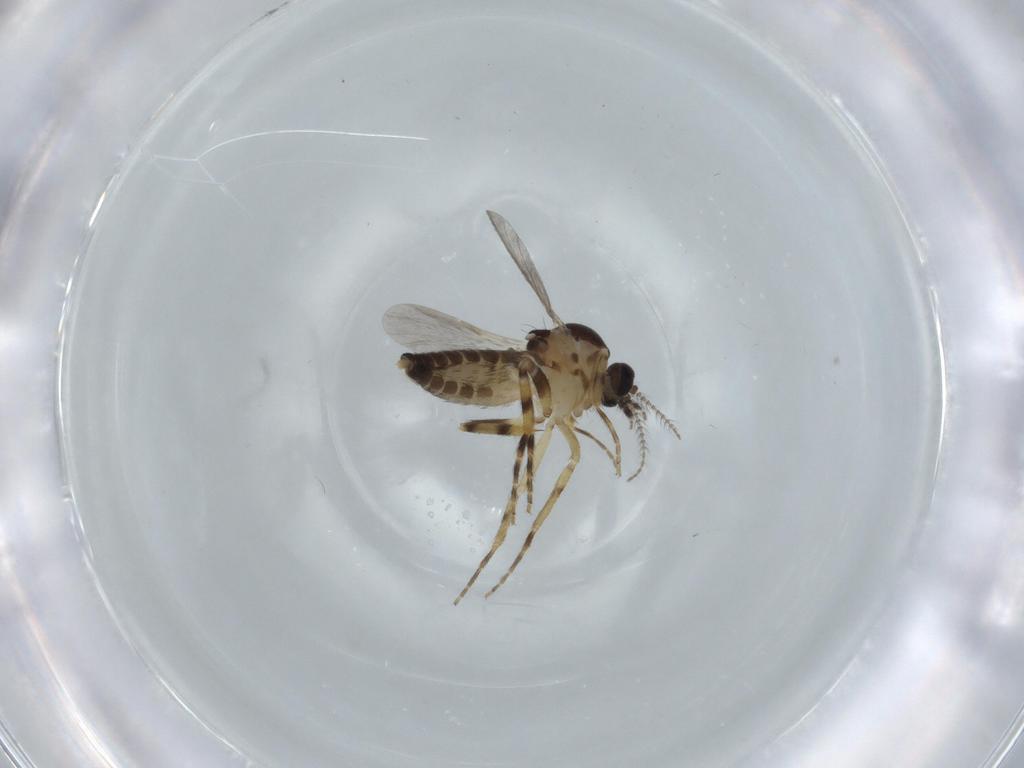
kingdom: Animalia
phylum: Arthropoda
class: Insecta
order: Diptera
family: Ceratopogonidae
